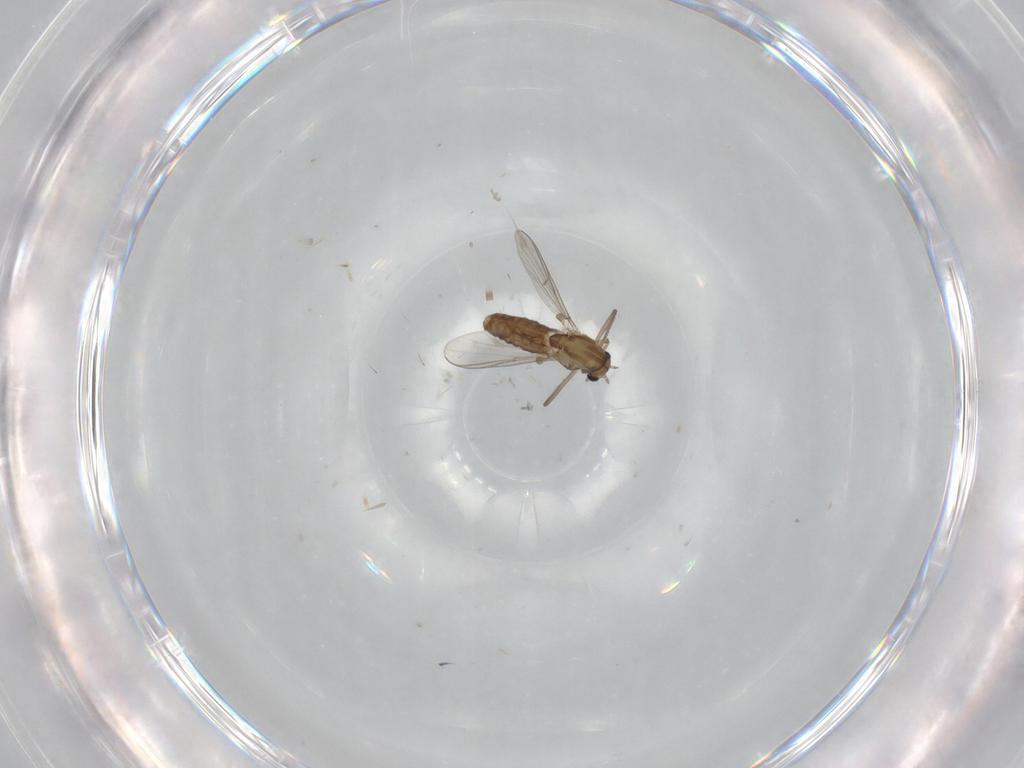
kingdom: Animalia
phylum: Arthropoda
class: Insecta
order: Diptera
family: Chironomidae
